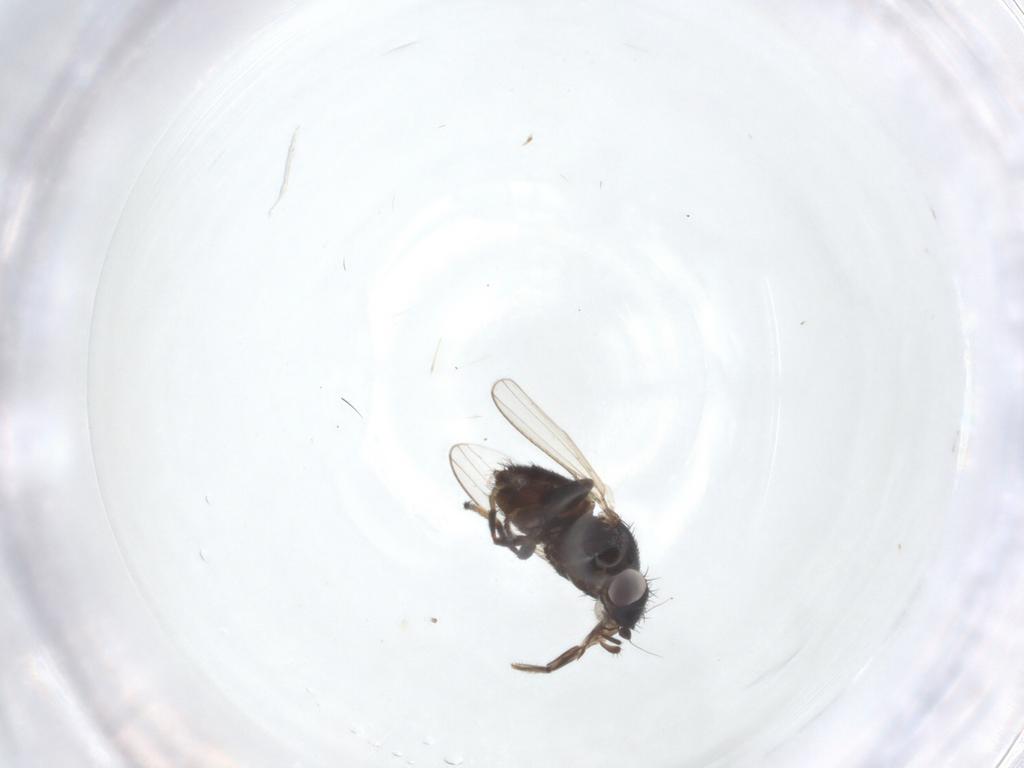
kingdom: Animalia
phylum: Arthropoda
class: Insecta
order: Diptera
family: Milichiidae
